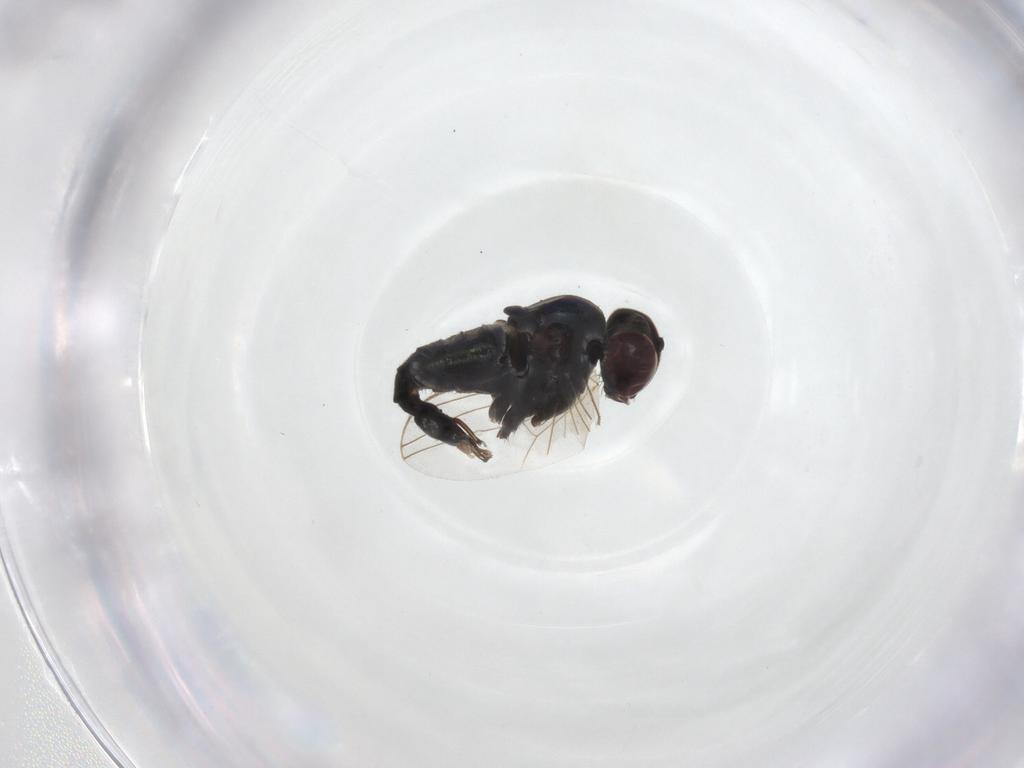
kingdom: Animalia
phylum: Arthropoda
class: Insecta
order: Diptera
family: Dolichopodidae
